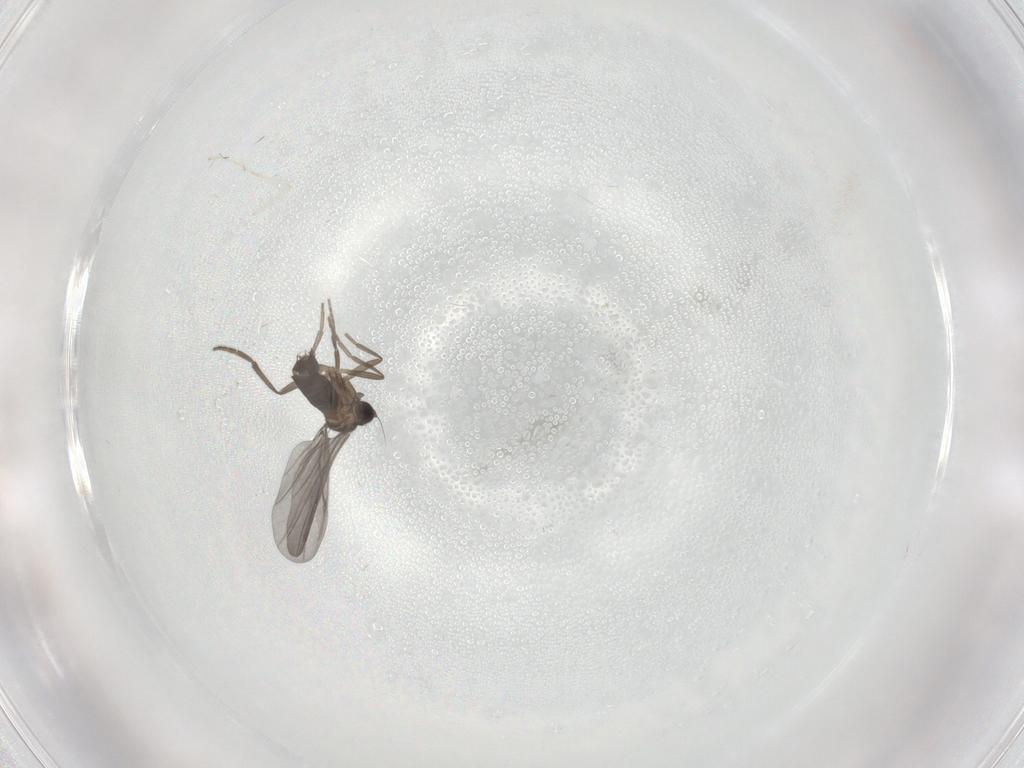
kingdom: Animalia
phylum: Arthropoda
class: Insecta
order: Diptera
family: Phoridae
